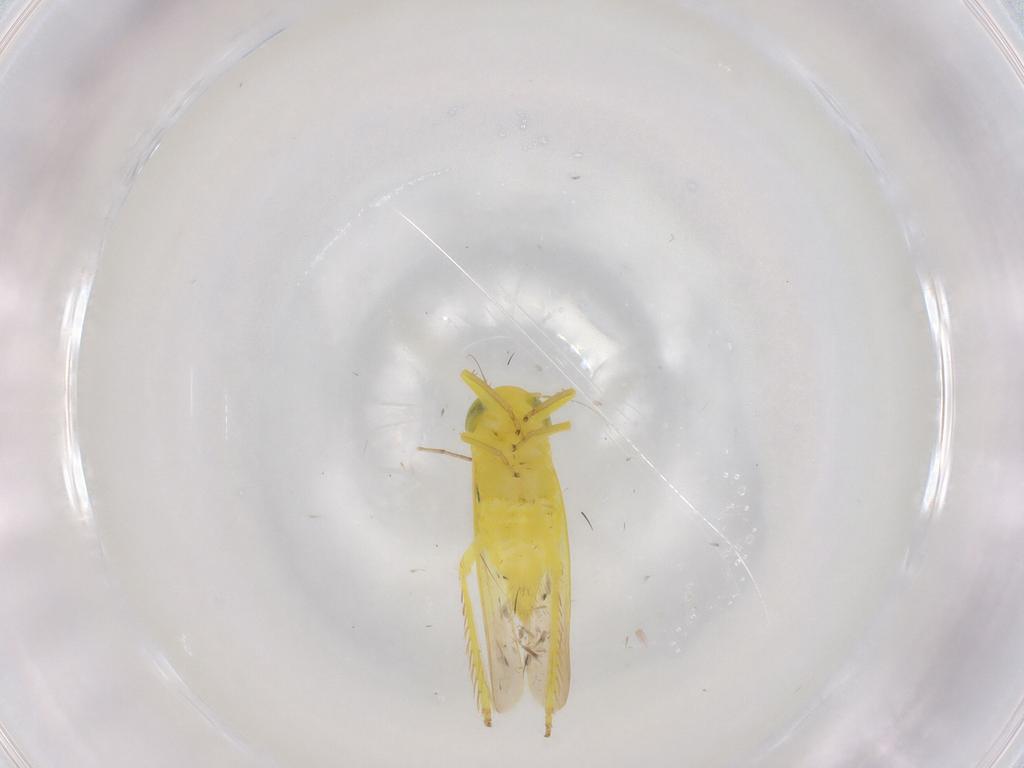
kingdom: Animalia
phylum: Arthropoda
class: Insecta
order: Hemiptera
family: Cicadellidae
